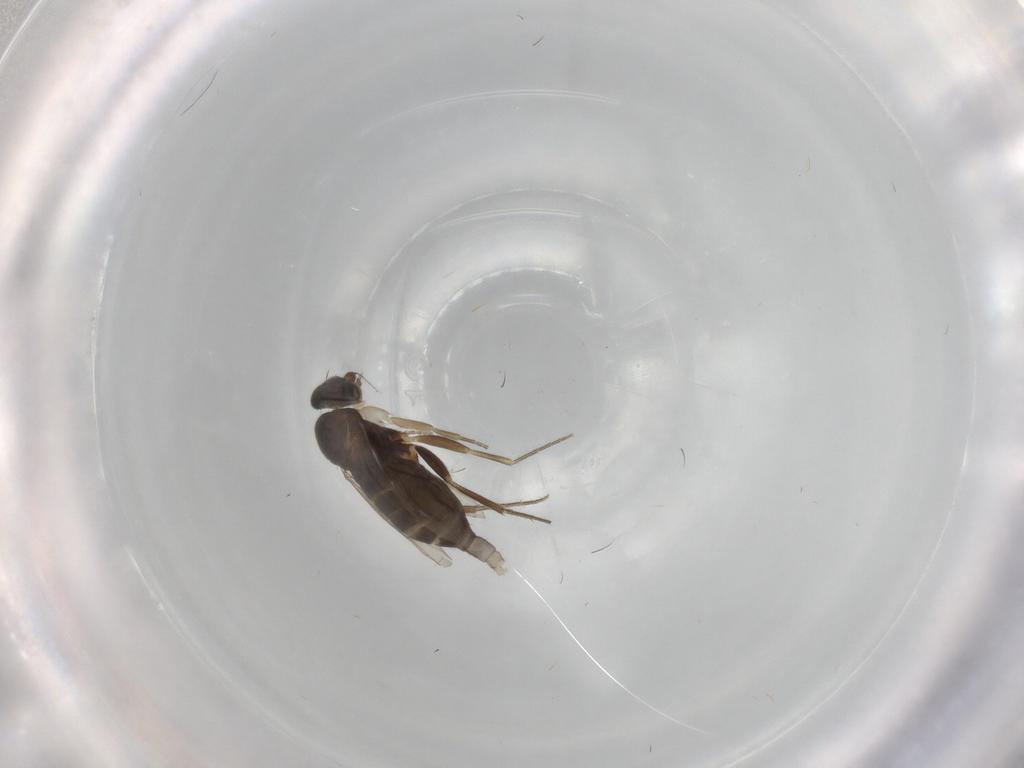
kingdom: Animalia
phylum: Arthropoda
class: Insecta
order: Diptera
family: Phoridae
